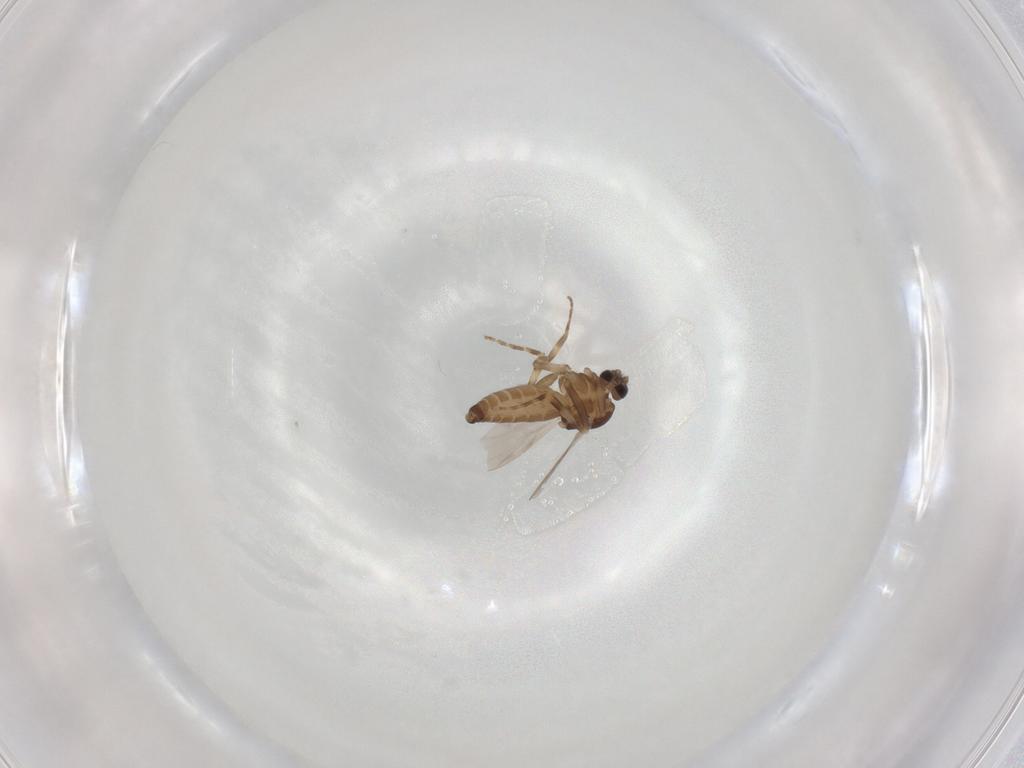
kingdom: Animalia
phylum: Arthropoda
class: Insecta
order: Diptera
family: Ceratopogonidae
